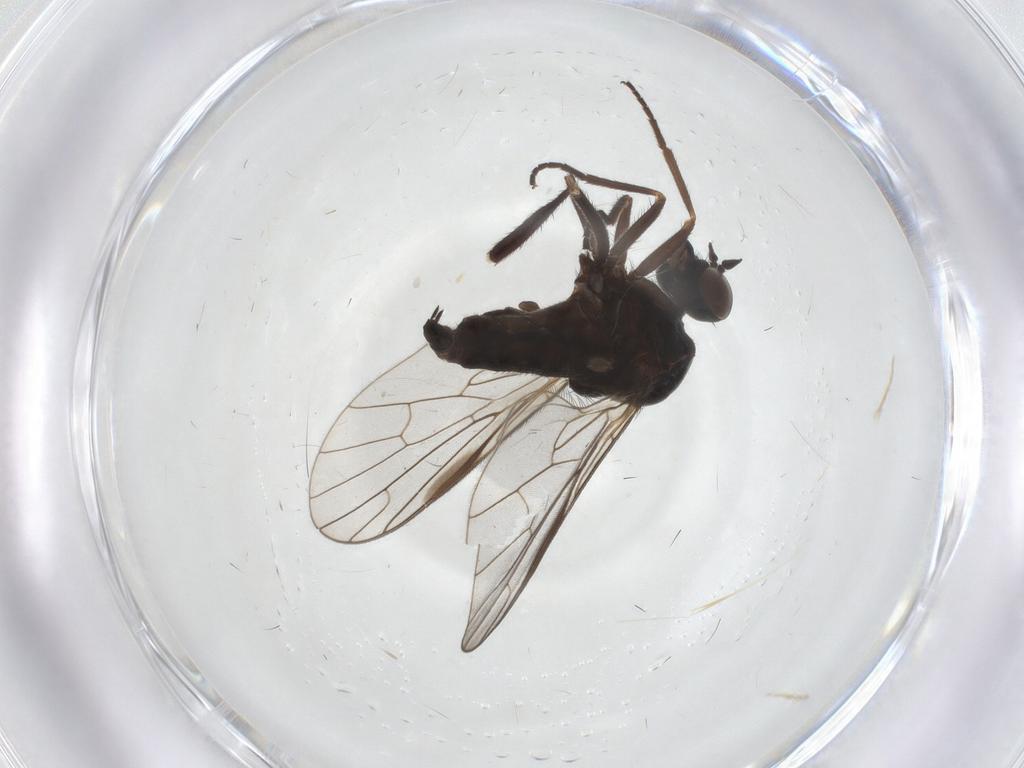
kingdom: Animalia
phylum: Arthropoda
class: Insecta
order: Diptera
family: Empididae
